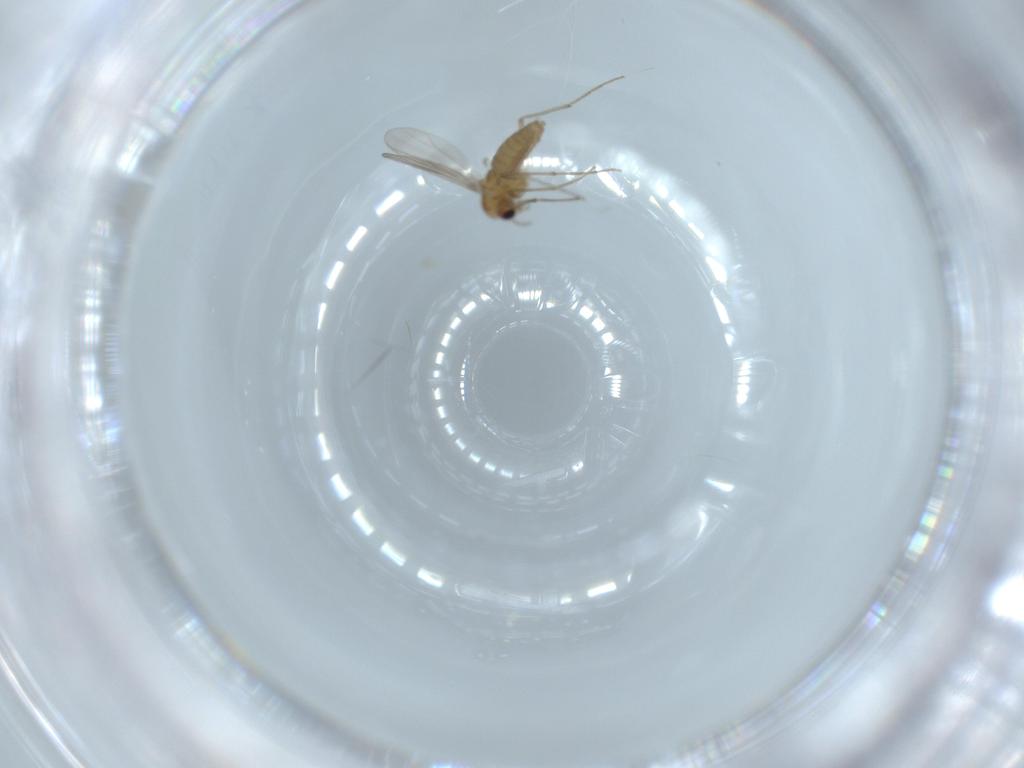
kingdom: Animalia
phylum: Arthropoda
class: Insecta
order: Diptera
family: Chironomidae
